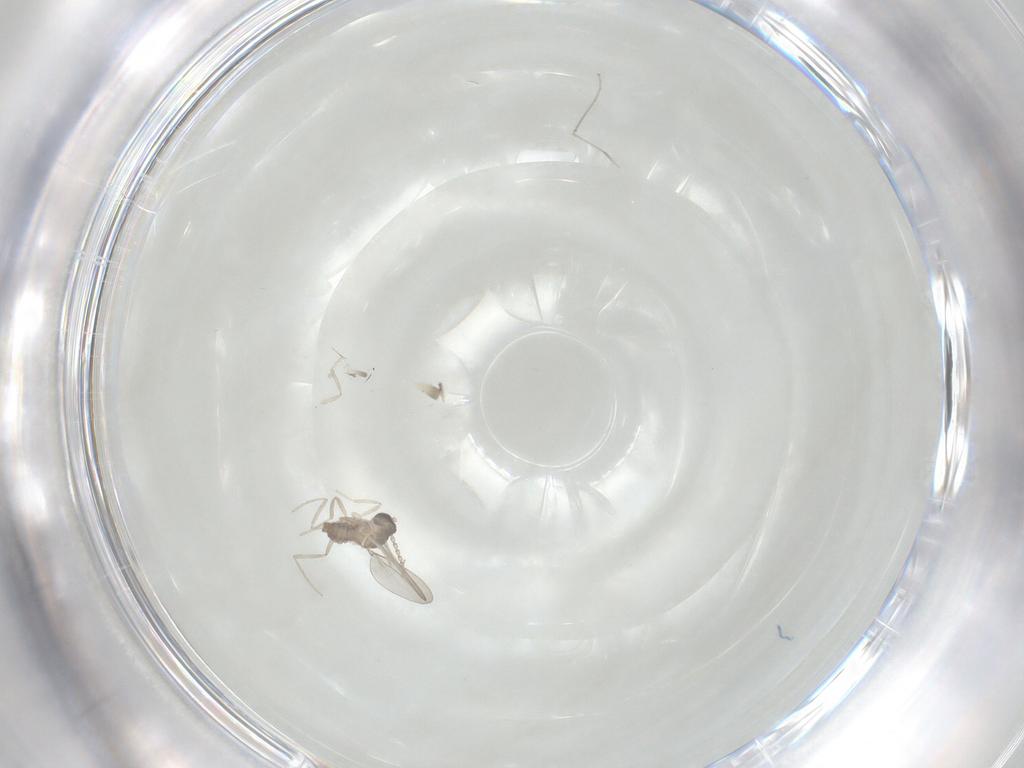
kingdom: Animalia
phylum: Arthropoda
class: Insecta
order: Diptera
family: Cecidomyiidae
